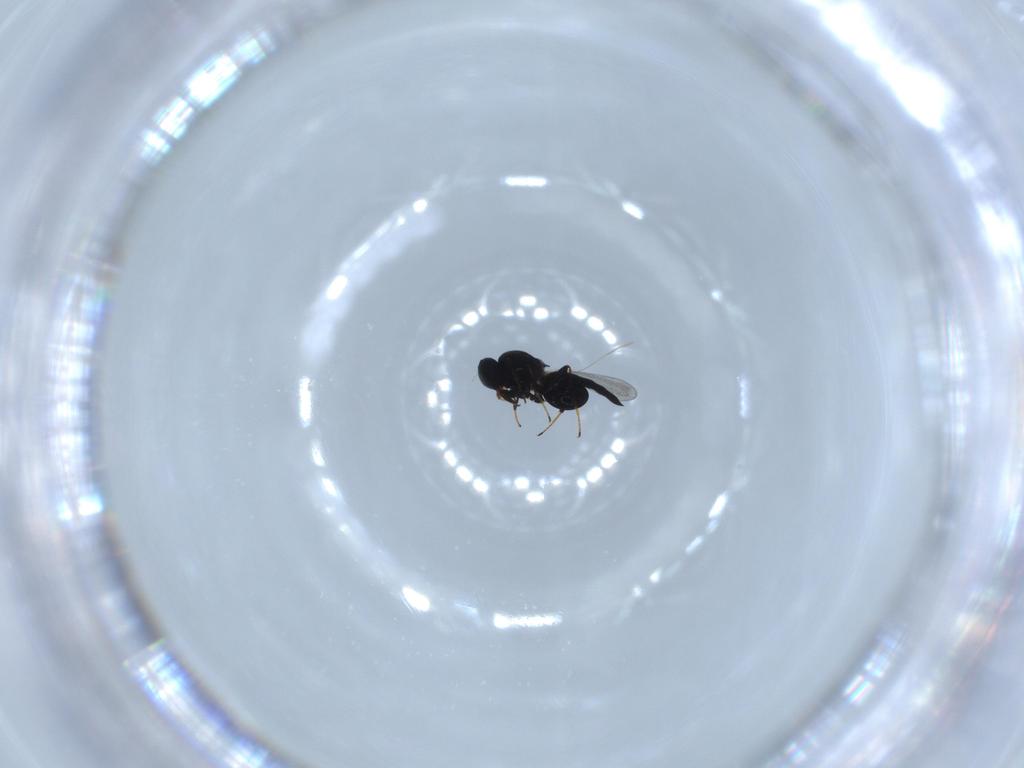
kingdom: Animalia
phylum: Arthropoda
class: Insecta
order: Hymenoptera
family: Platygastridae
